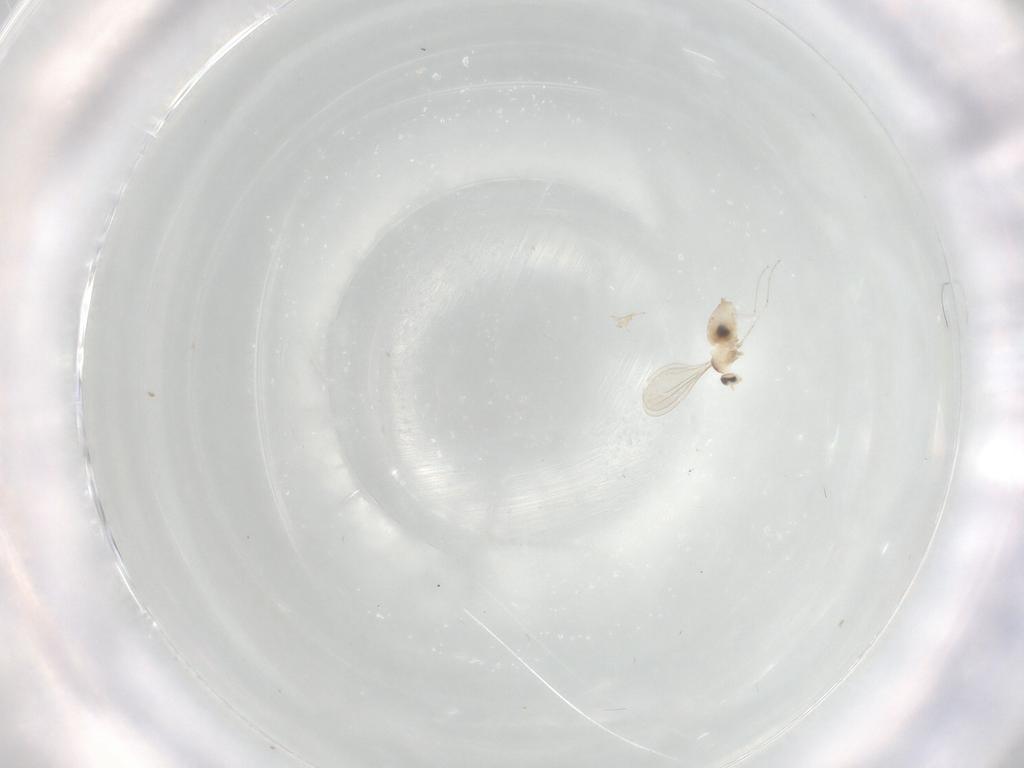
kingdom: Animalia
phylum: Arthropoda
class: Insecta
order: Diptera
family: Cecidomyiidae
